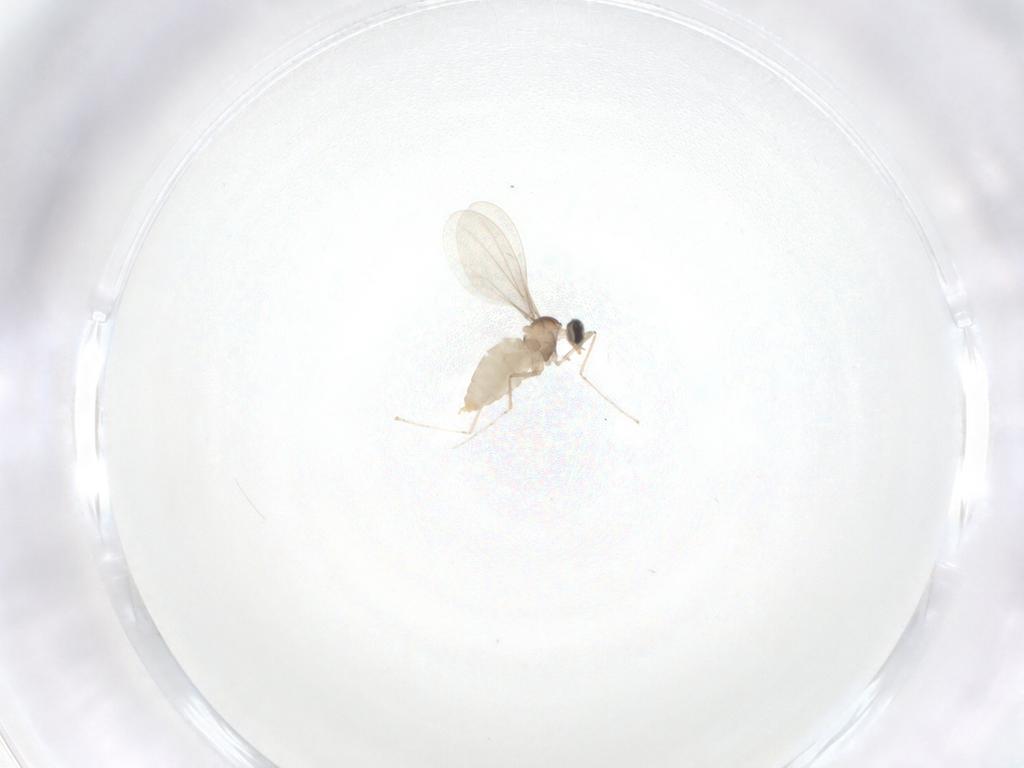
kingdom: Animalia
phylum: Arthropoda
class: Insecta
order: Diptera
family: Cecidomyiidae
